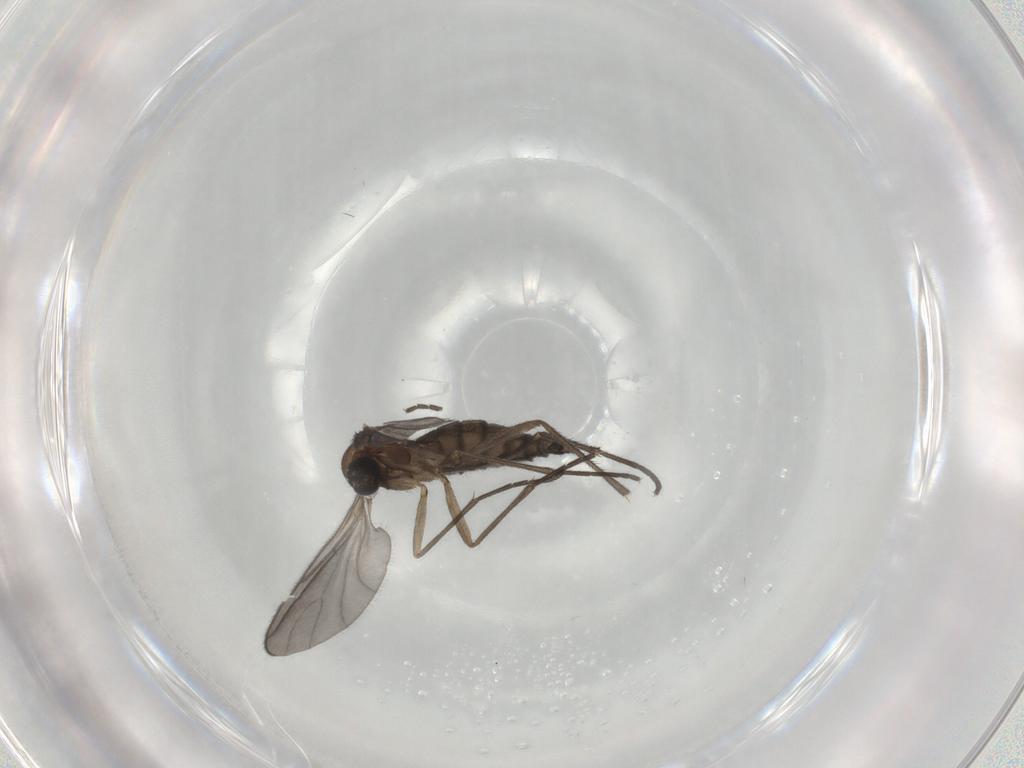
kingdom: Animalia
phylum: Arthropoda
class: Insecta
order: Diptera
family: Sciaridae
